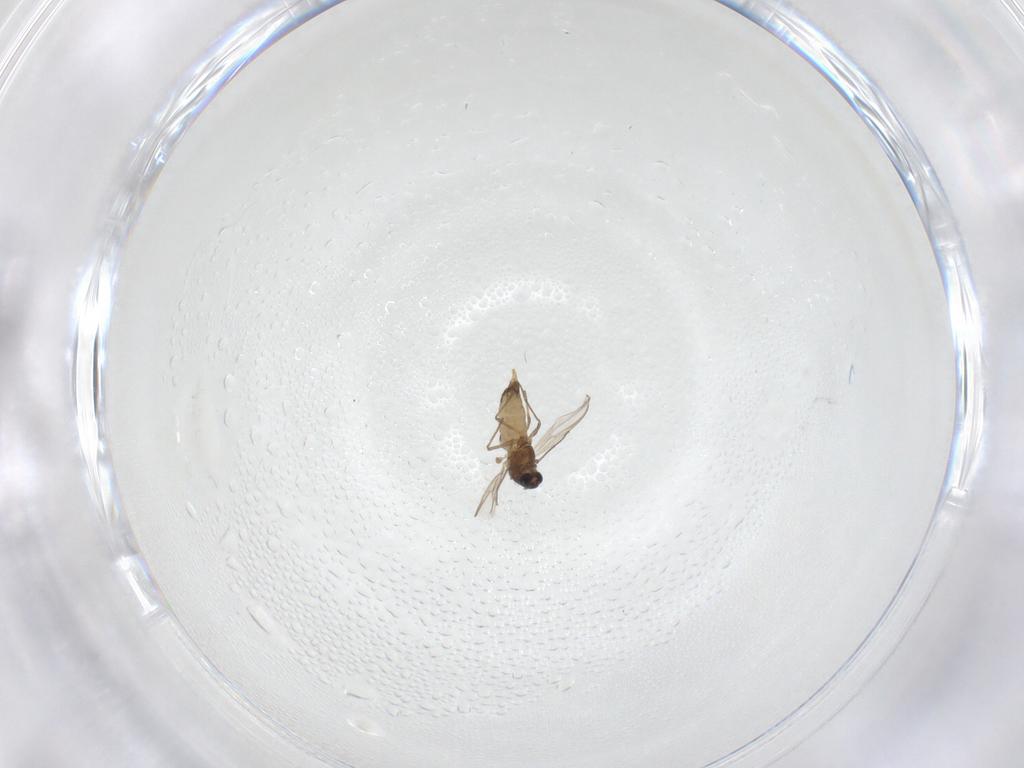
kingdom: Animalia
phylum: Arthropoda
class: Insecta
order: Diptera
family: Chironomidae
